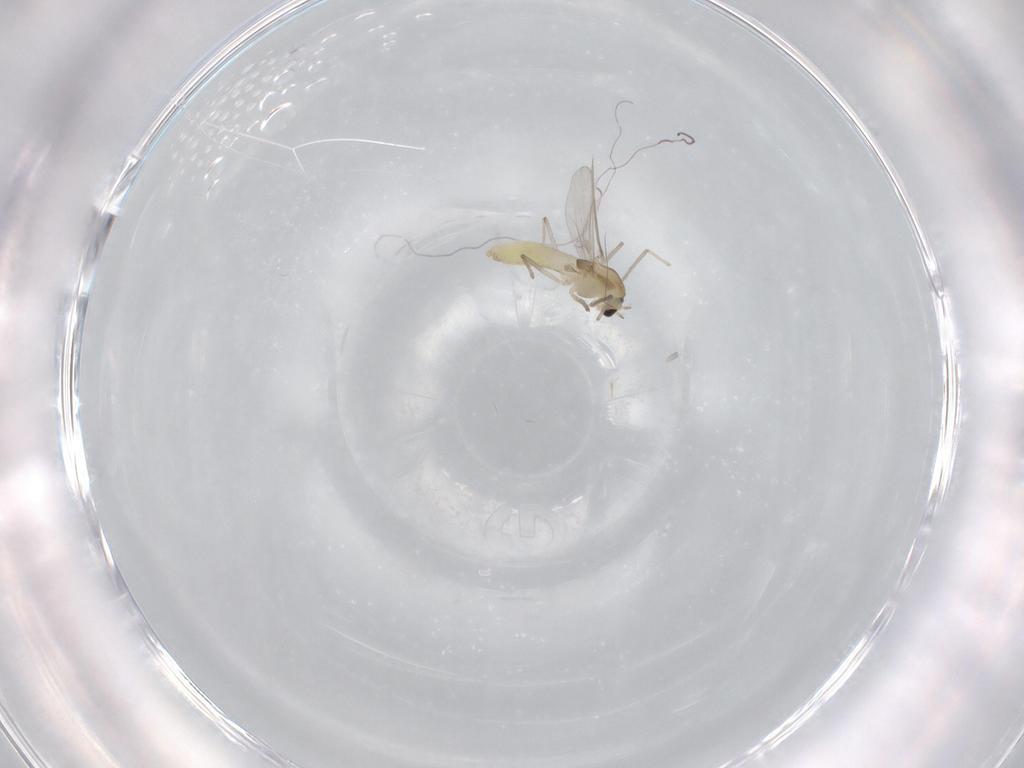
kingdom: Animalia
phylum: Arthropoda
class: Insecta
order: Diptera
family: Chironomidae
